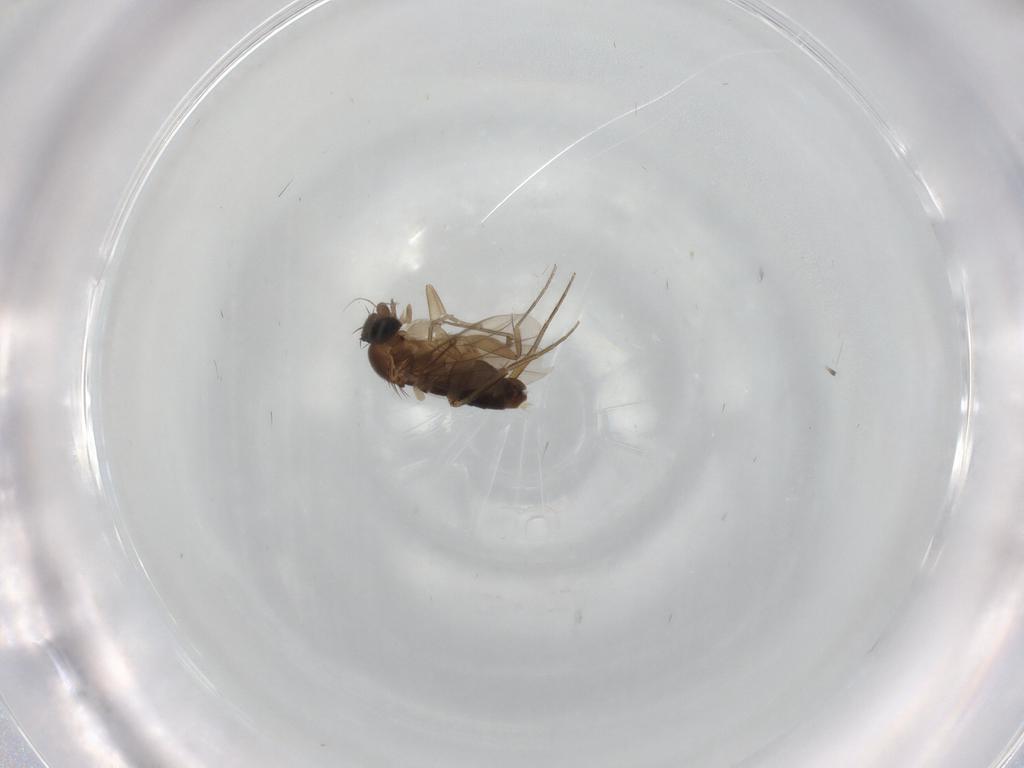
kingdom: Animalia
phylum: Arthropoda
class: Insecta
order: Diptera
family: Phoridae
